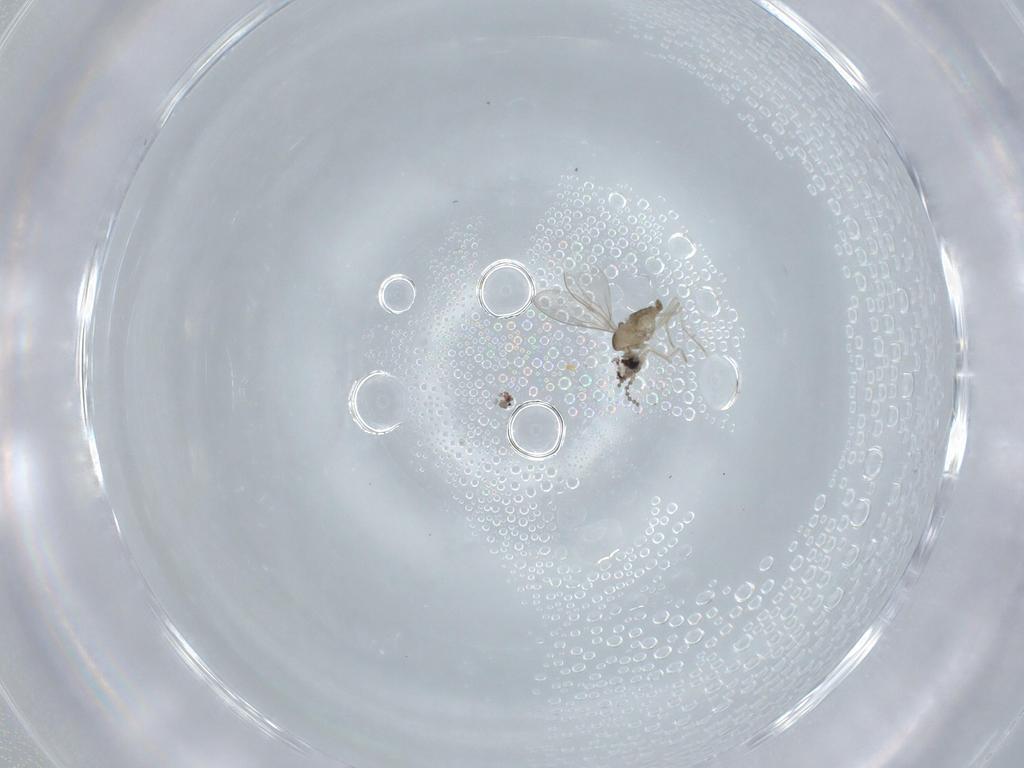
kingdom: Animalia
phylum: Arthropoda
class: Insecta
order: Diptera
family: Cecidomyiidae
